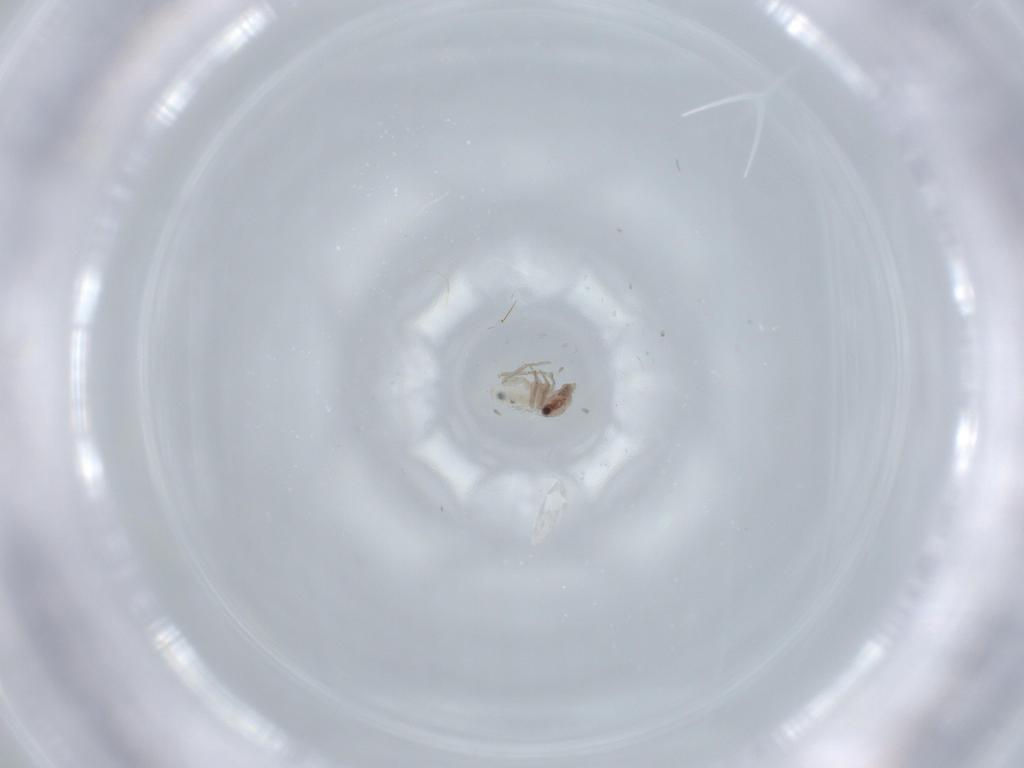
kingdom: Animalia
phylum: Arthropoda
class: Insecta
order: Psocodea
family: Lepidopsocidae
